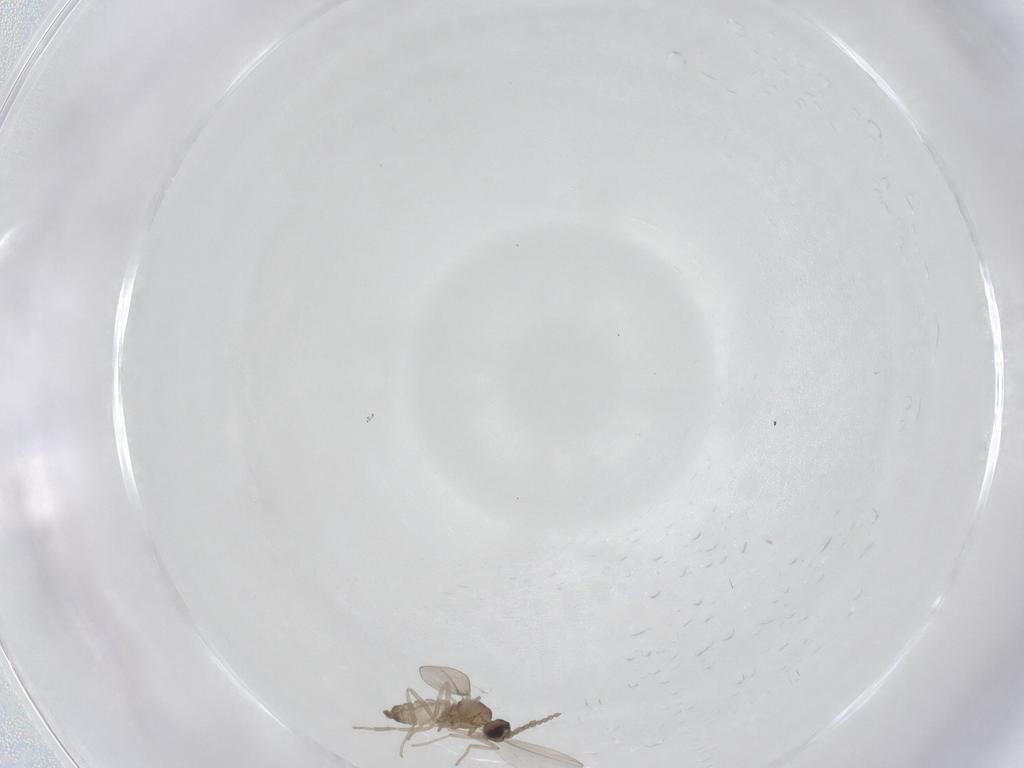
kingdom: Animalia
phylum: Arthropoda
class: Insecta
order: Diptera
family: Cecidomyiidae
